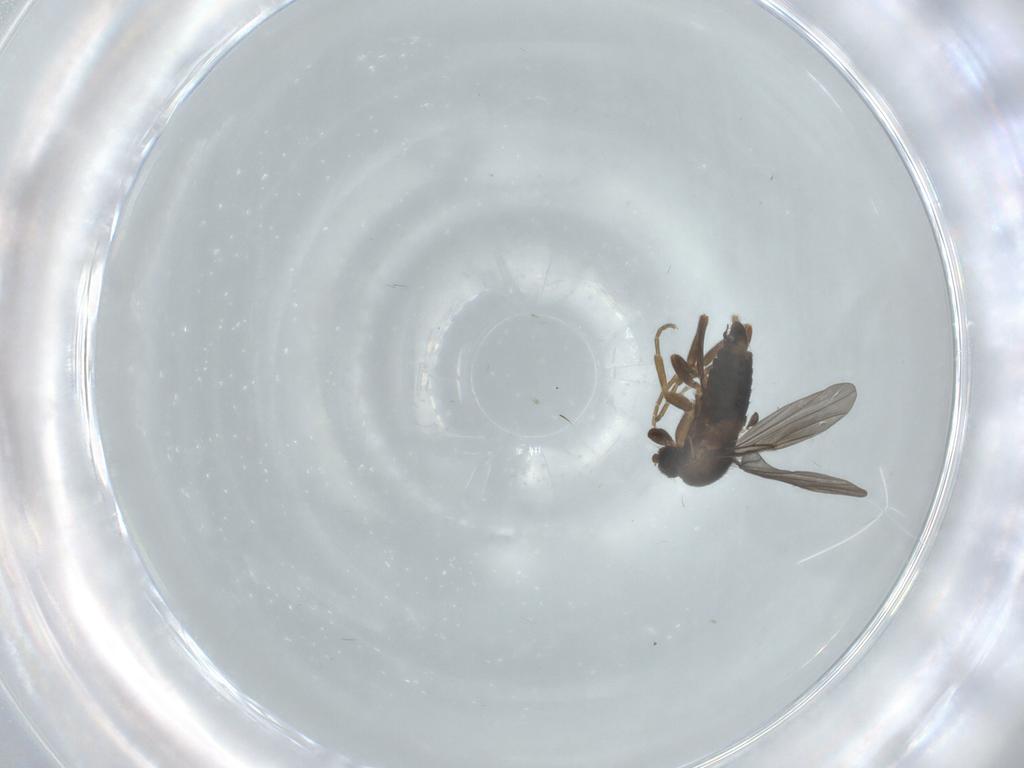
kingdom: Animalia
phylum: Arthropoda
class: Insecta
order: Diptera
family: Phoridae
